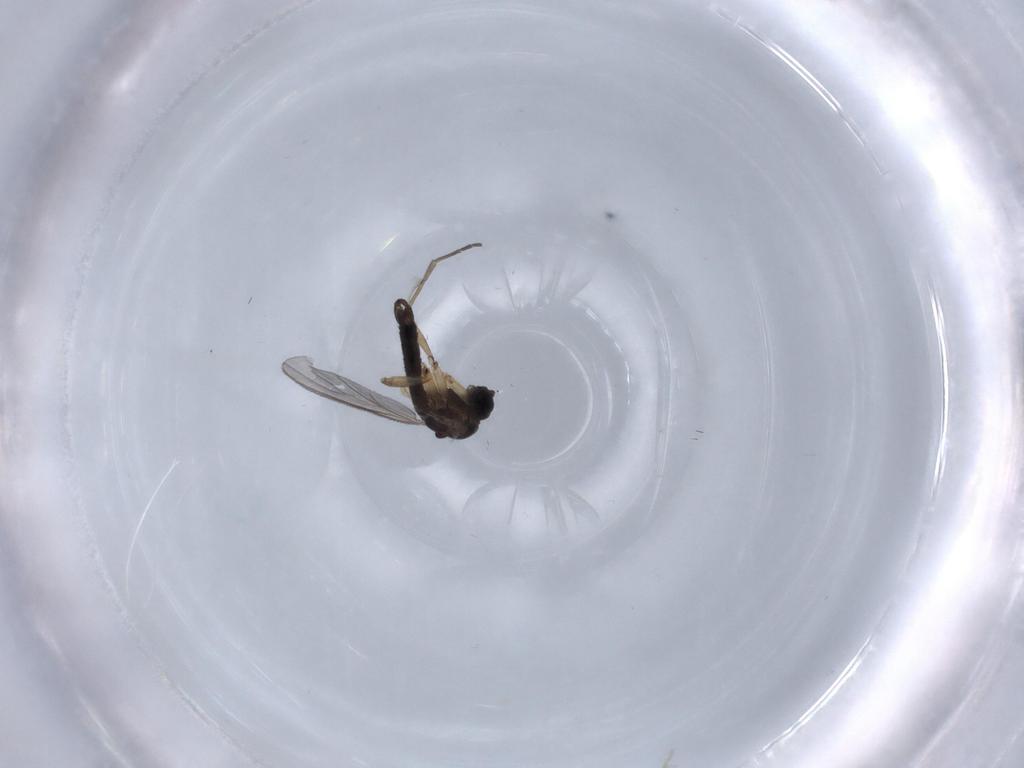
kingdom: Animalia
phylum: Arthropoda
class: Insecta
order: Diptera
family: Sciaridae
